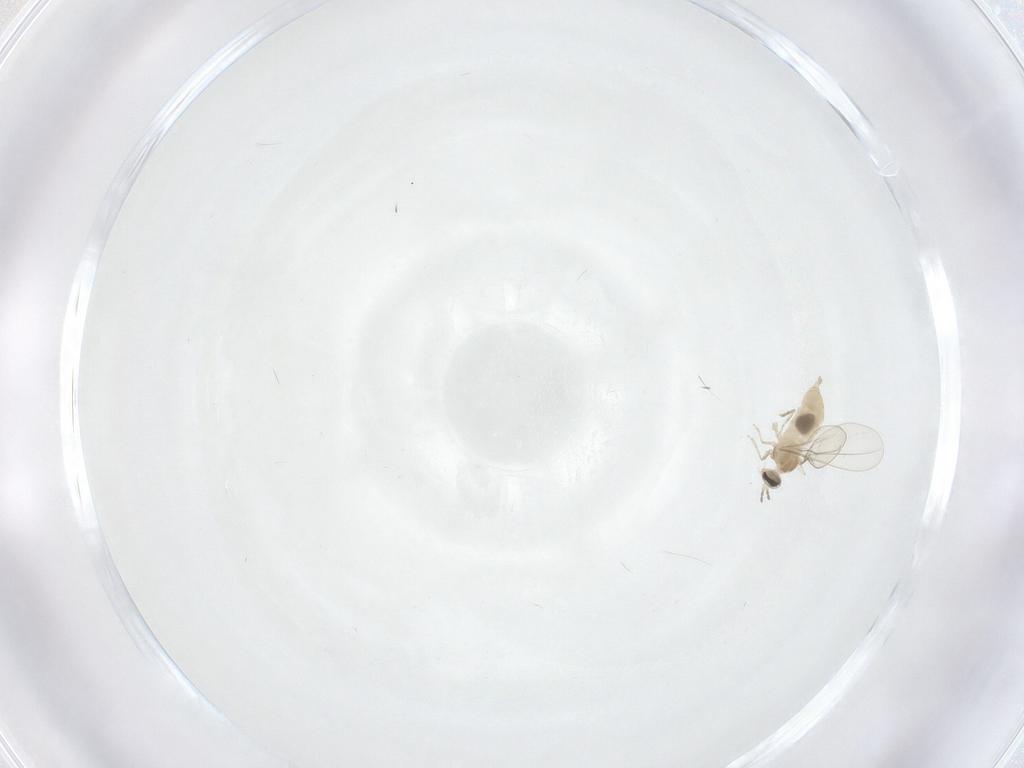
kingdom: Animalia
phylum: Arthropoda
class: Insecta
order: Diptera
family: Cecidomyiidae
